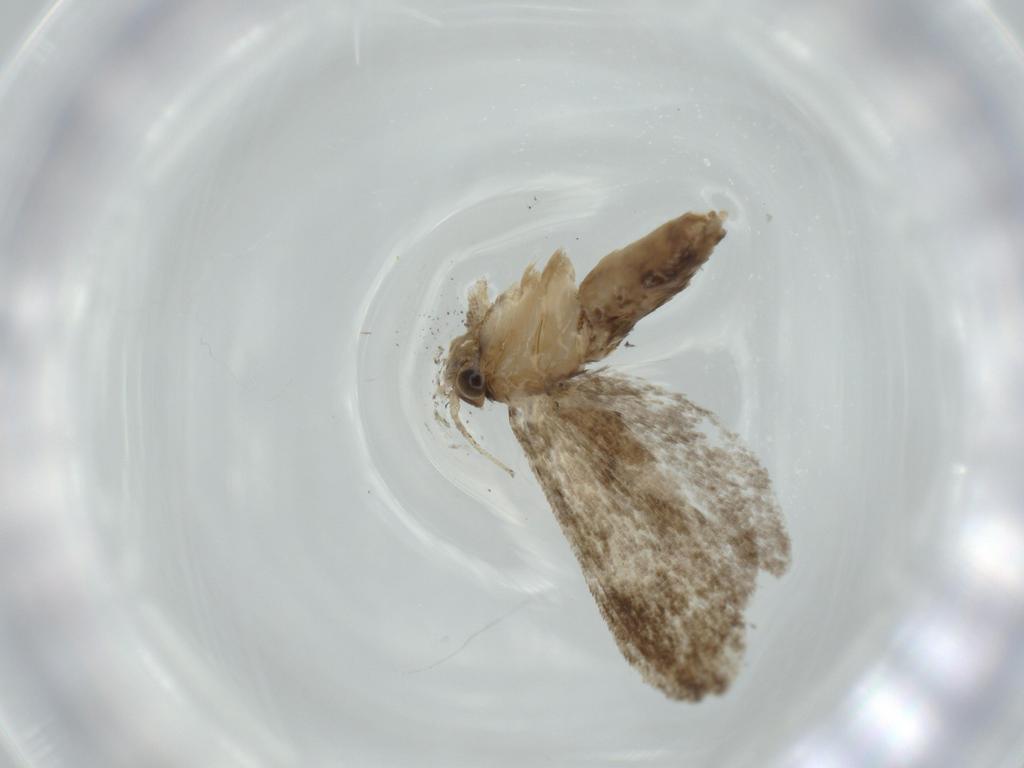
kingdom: Animalia
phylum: Arthropoda
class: Insecta
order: Lepidoptera
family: Tineidae
